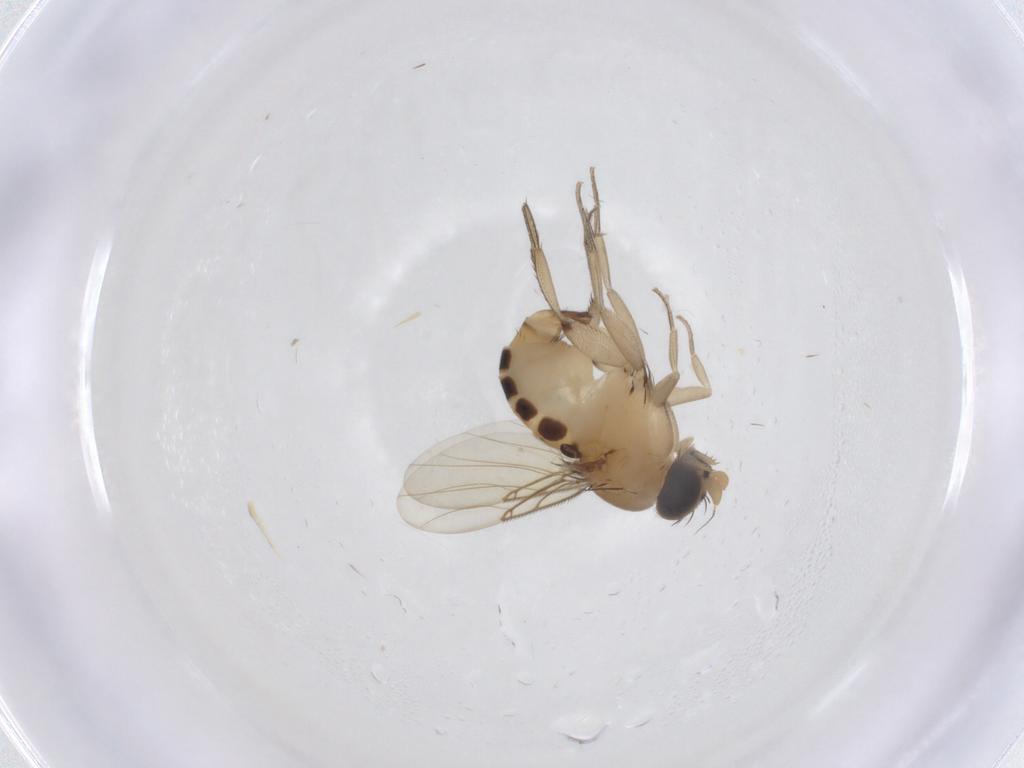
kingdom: Animalia
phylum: Arthropoda
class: Insecta
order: Diptera
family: Phoridae
